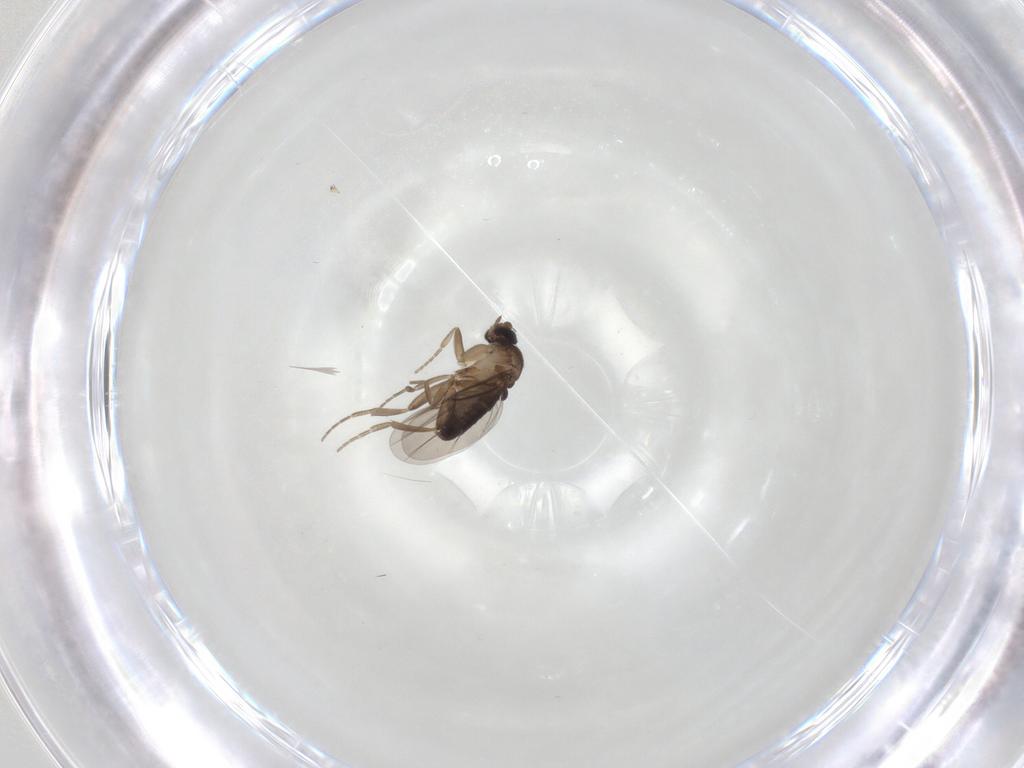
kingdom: Animalia
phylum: Arthropoda
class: Insecta
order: Diptera
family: Phoridae
